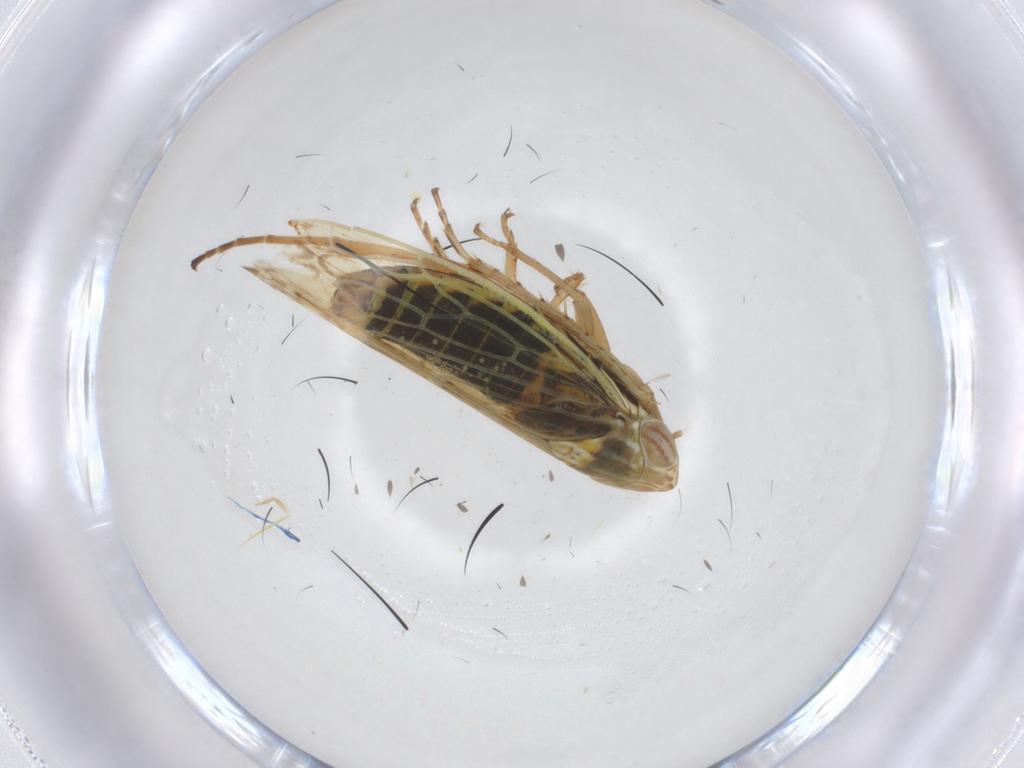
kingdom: Animalia
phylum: Arthropoda
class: Insecta
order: Hemiptera
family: Cicadellidae
